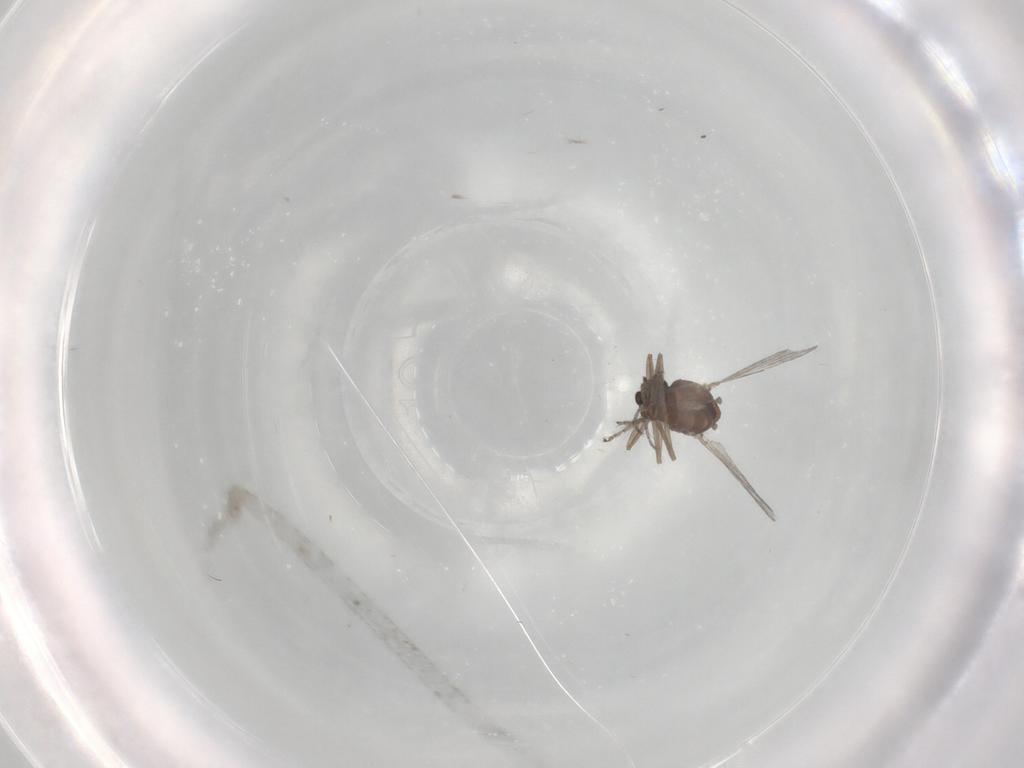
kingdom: Animalia
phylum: Arthropoda
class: Insecta
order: Diptera
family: Ceratopogonidae
